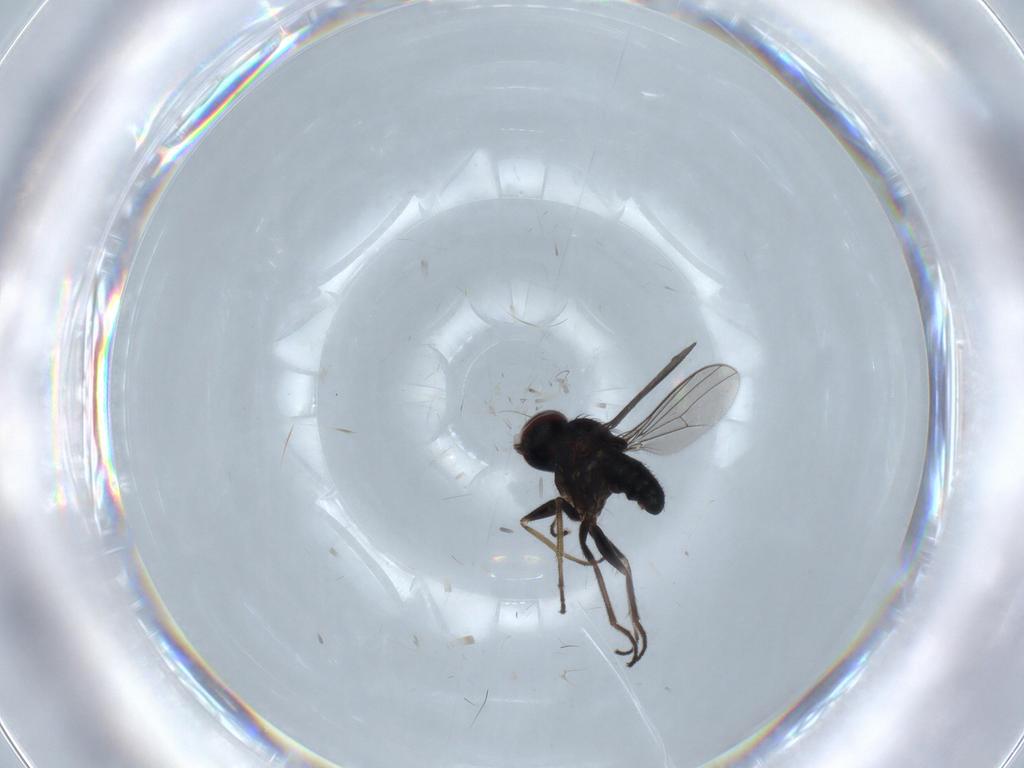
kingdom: Animalia
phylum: Arthropoda
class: Insecta
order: Diptera
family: Dolichopodidae
